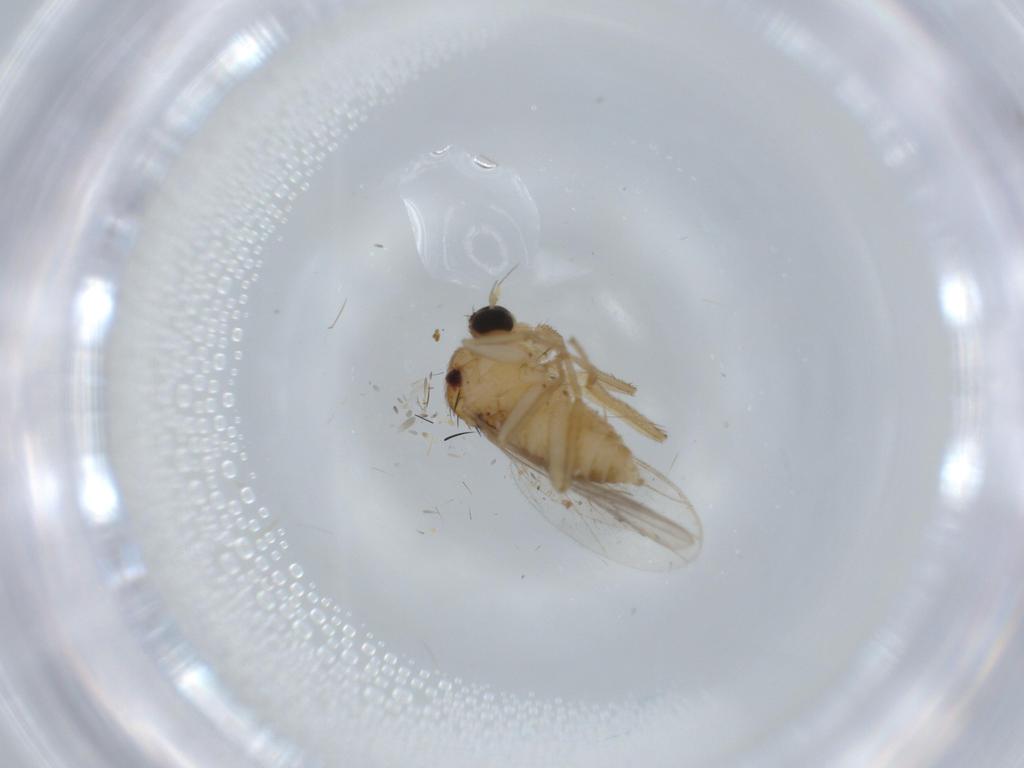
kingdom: Animalia
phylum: Arthropoda
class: Insecta
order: Diptera
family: Hybotidae
